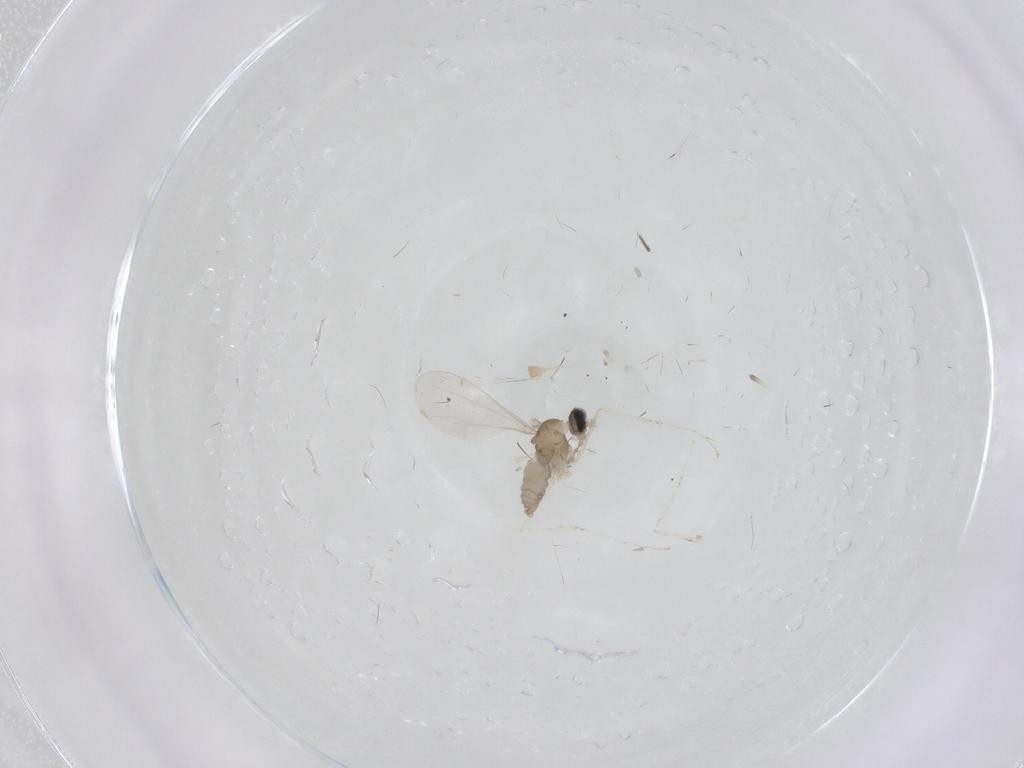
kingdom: Animalia
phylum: Arthropoda
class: Insecta
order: Diptera
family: Cecidomyiidae
